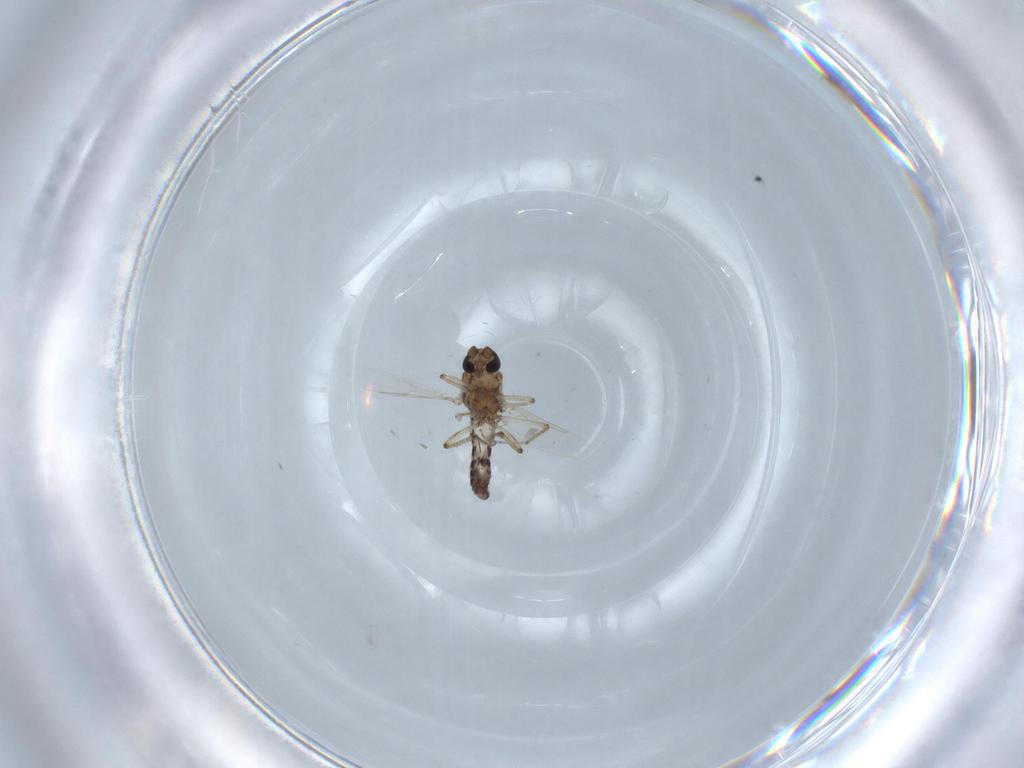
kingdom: Animalia
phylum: Arthropoda
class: Insecta
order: Diptera
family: Ceratopogonidae
